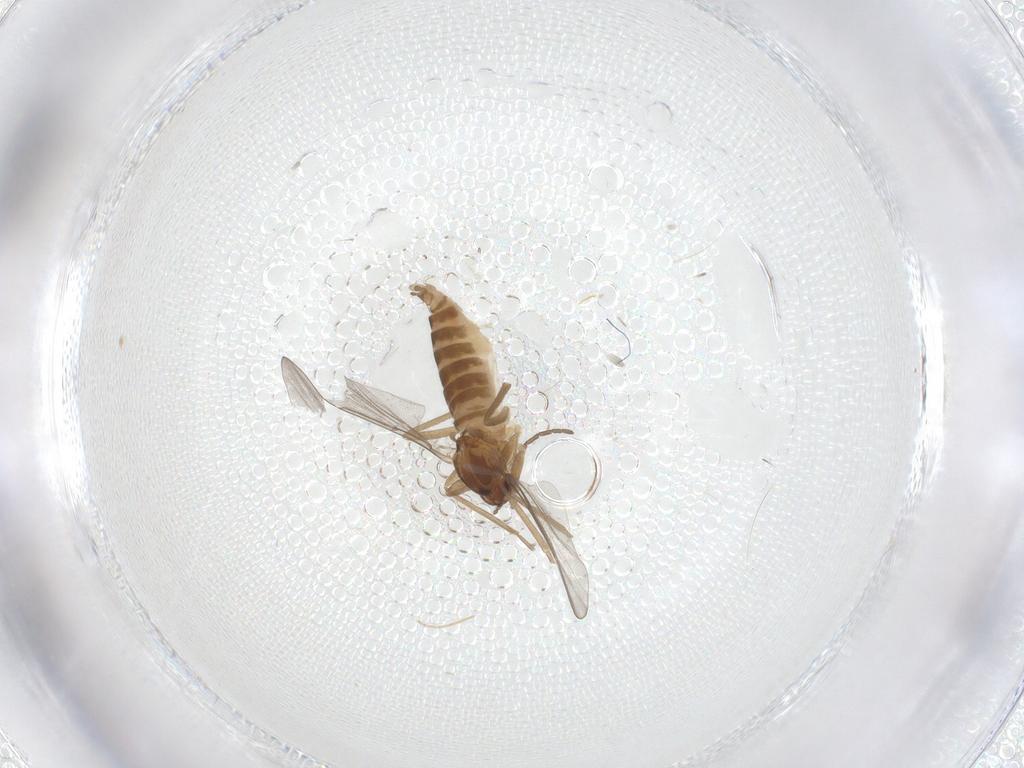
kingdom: Animalia
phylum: Arthropoda
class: Insecta
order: Diptera
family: Cecidomyiidae
